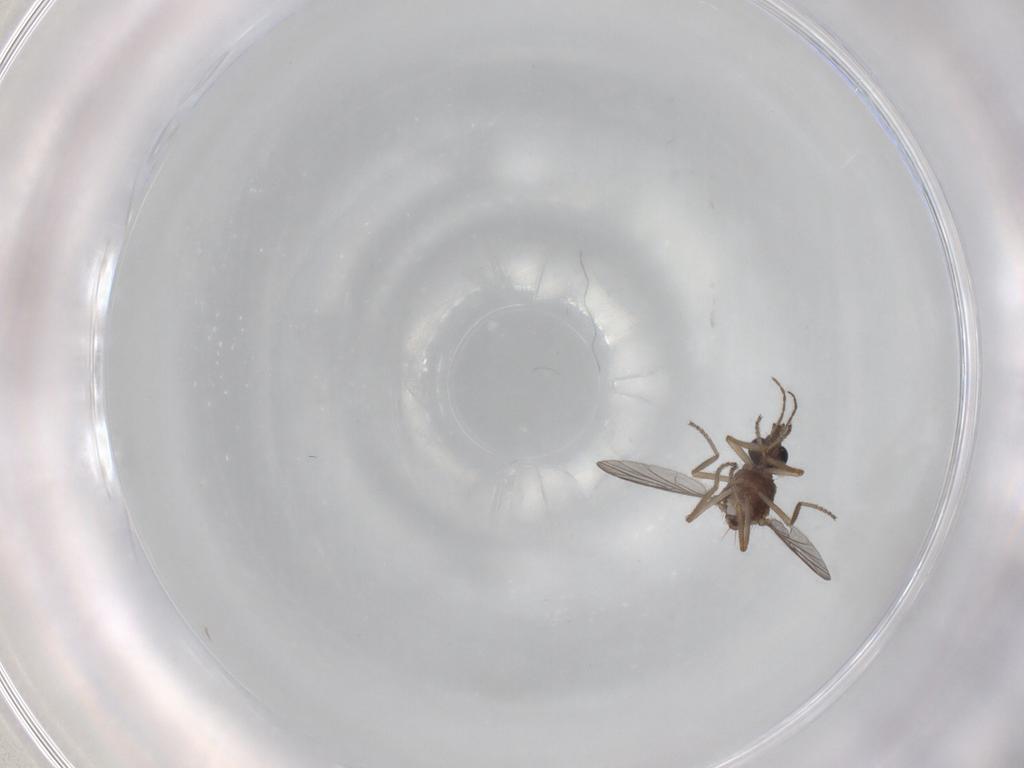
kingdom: Animalia
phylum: Arthropoda
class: Insecta
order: Diptera
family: Ceratopogonidae
